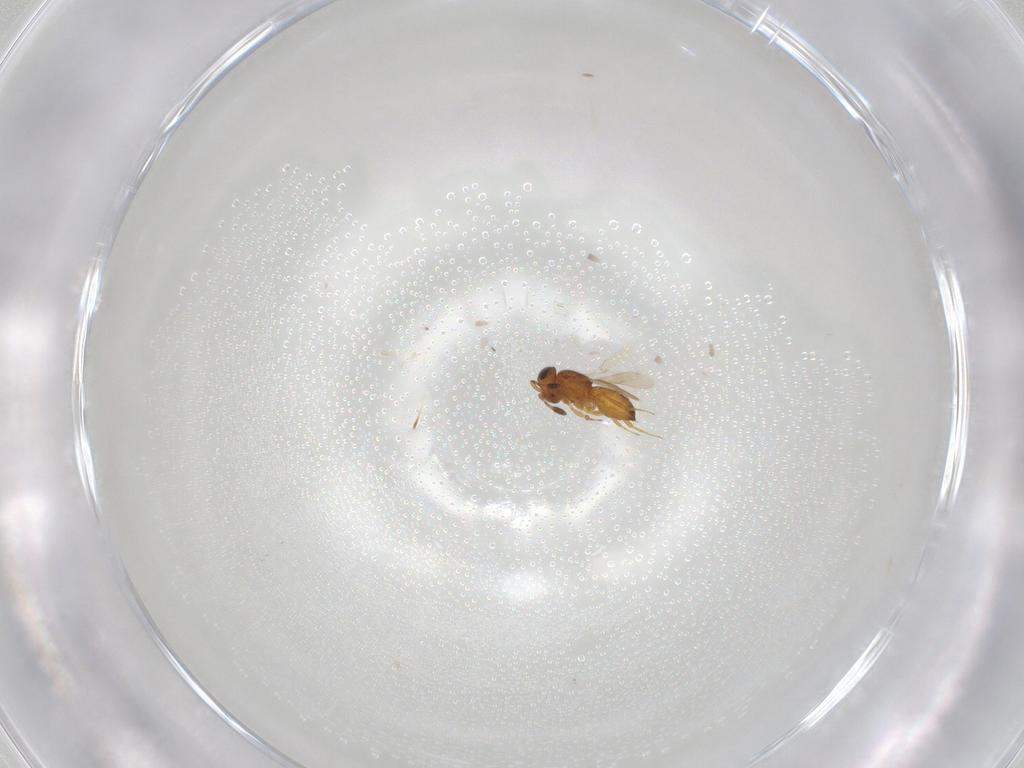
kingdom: Animalia
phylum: Arthropoda
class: Insecta
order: Hymenoptera
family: Scelionidae
